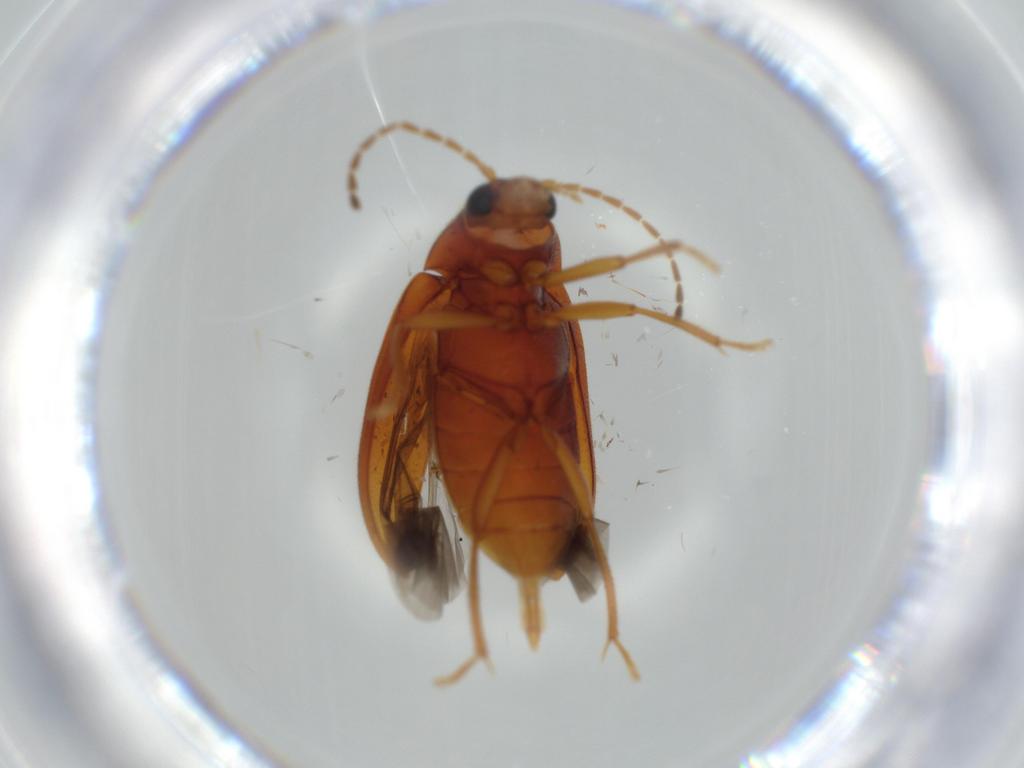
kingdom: Animalia
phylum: Arthropoda
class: Insecta
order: Coleoptera
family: Ptilodactylidae
